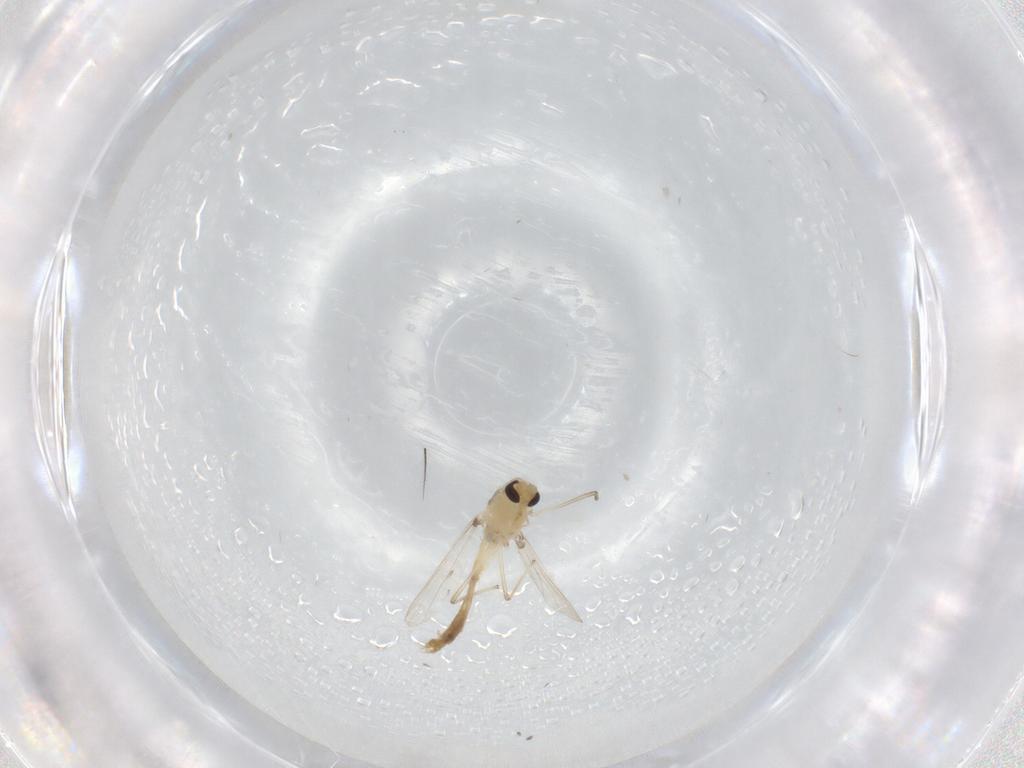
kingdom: Animalia
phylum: Arthropoda
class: Insecta
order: Diptera
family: Chironomidae
